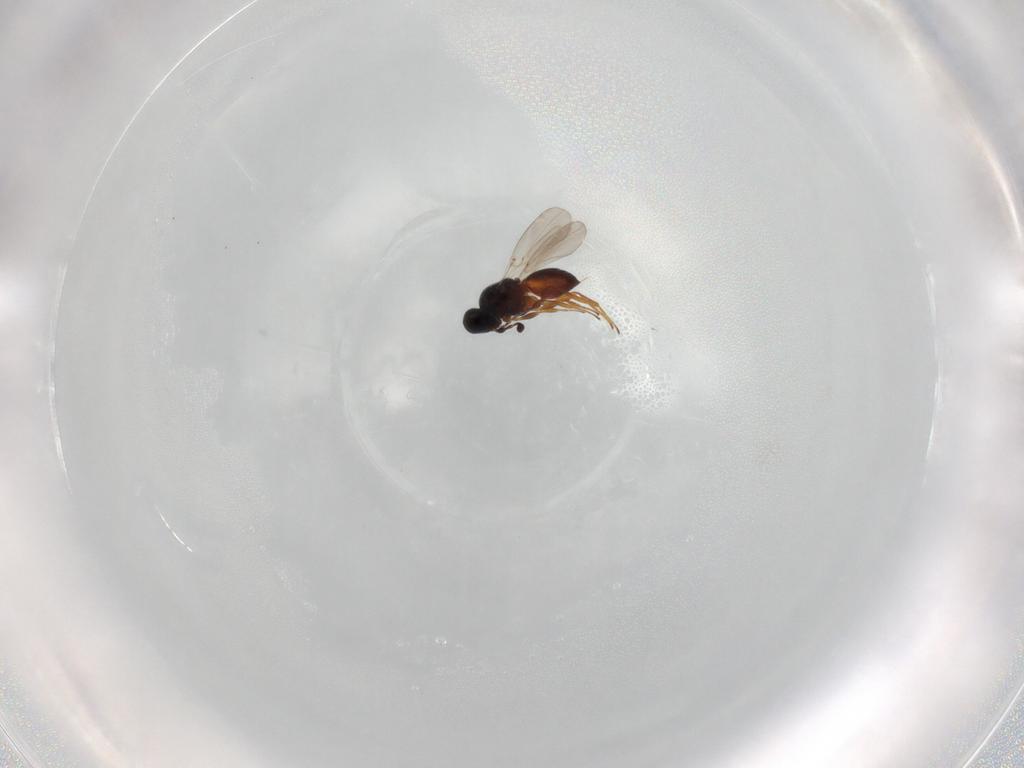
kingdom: Animalia
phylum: Arthropoda
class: Insecta
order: Hymenoptera
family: Platygastridae
